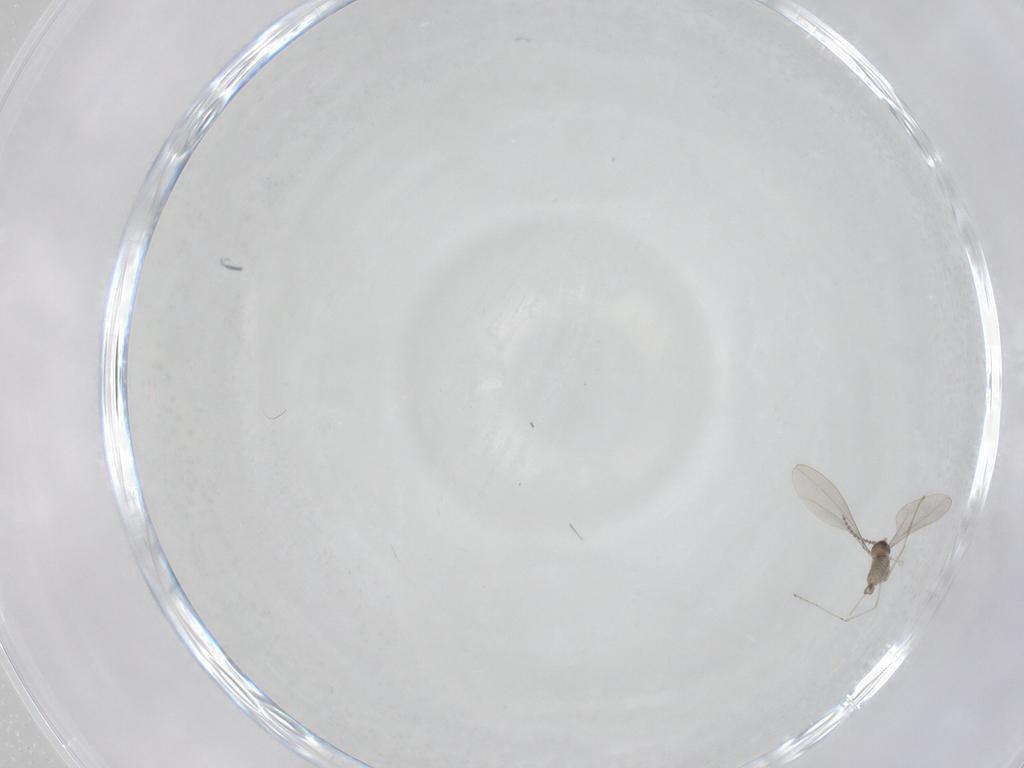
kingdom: Animalia
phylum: Arthropoda
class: Insecta
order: Diptera
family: Cecidomyiidae
